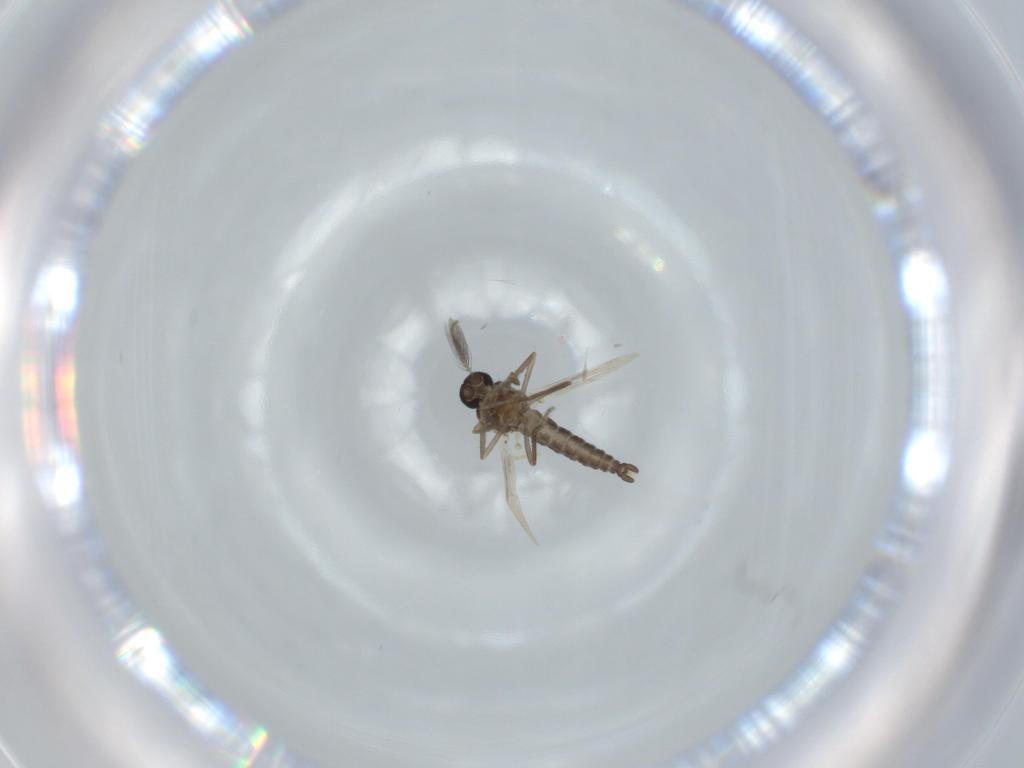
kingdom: Animalia
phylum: Arthropoda
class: Insecta
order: Diptera
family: Ceratopogonidae
